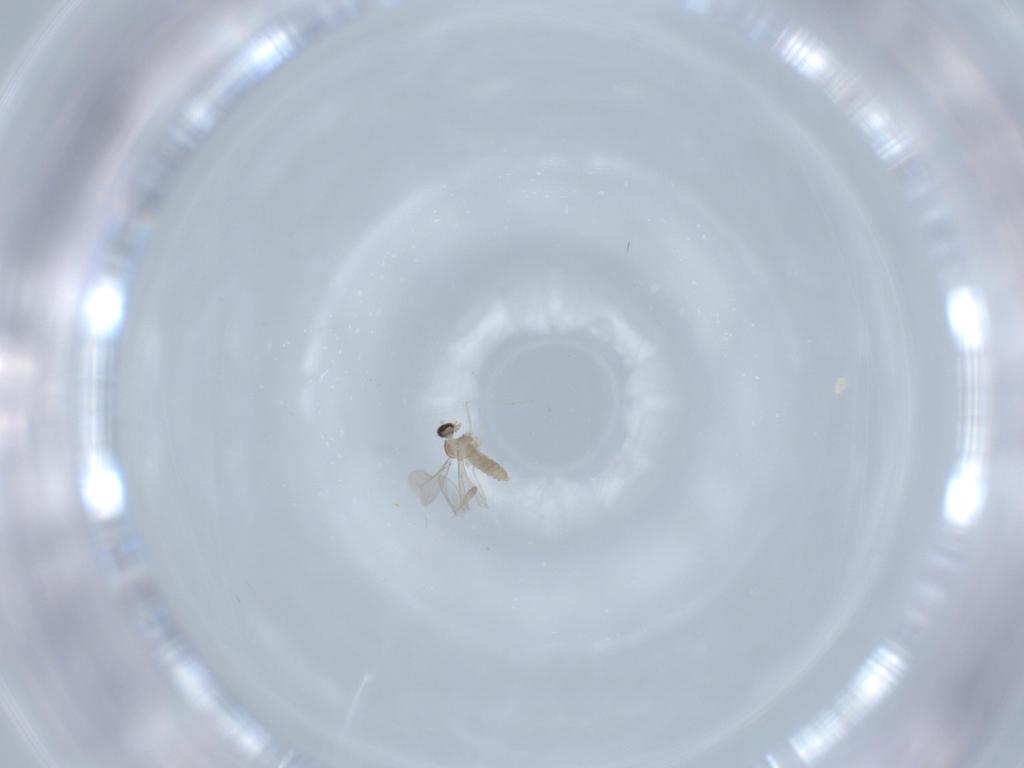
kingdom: Animalia
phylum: Arthropoda
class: Insecta
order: Diptera
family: Cecidomyiidae
